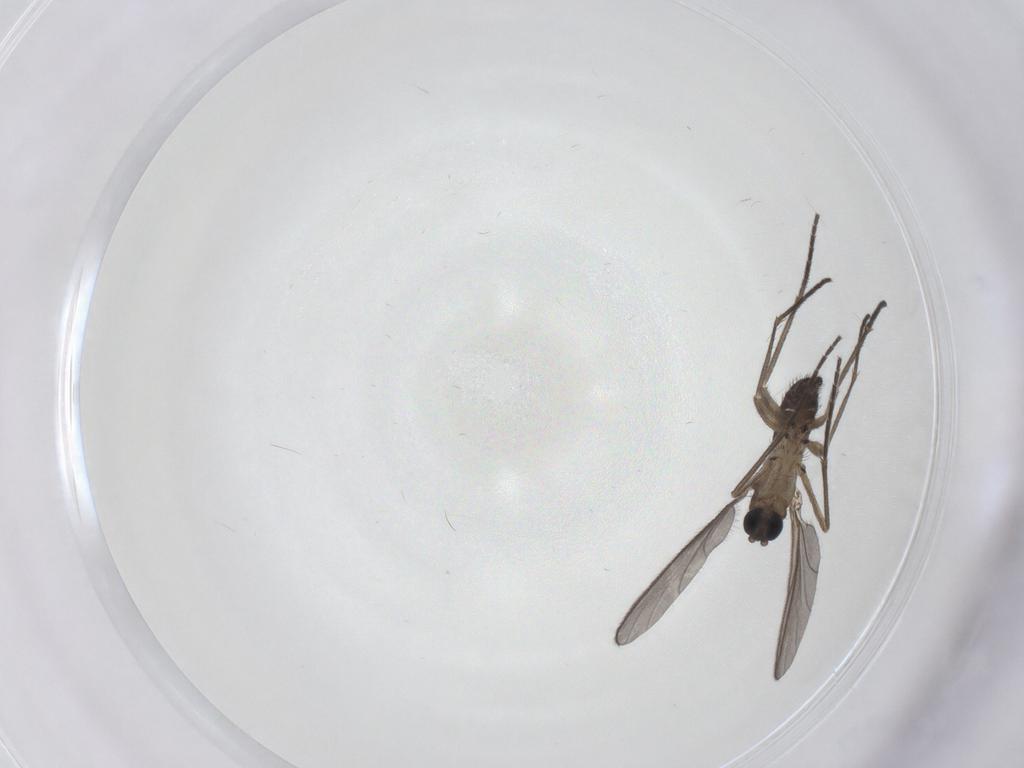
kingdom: Animalia
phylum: Arthropoda
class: Insecta
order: Diptera
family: Sciaridae
